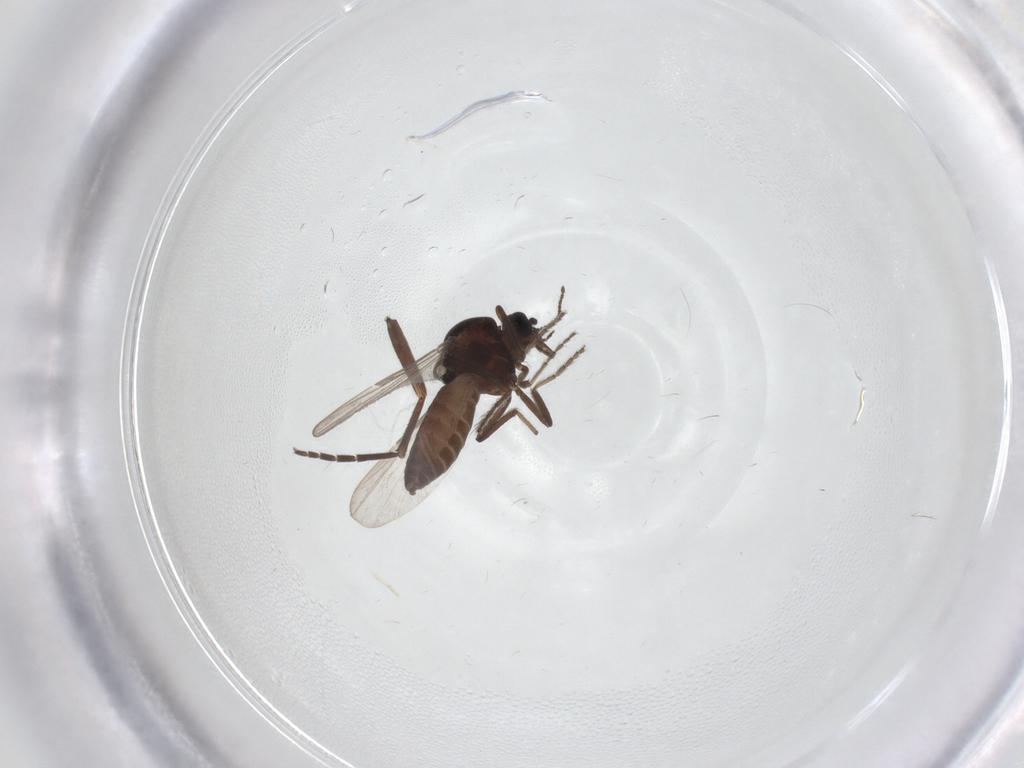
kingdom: Animalia
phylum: Arthropoda
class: Insecta
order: Diptera
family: Ceratopogonidae
